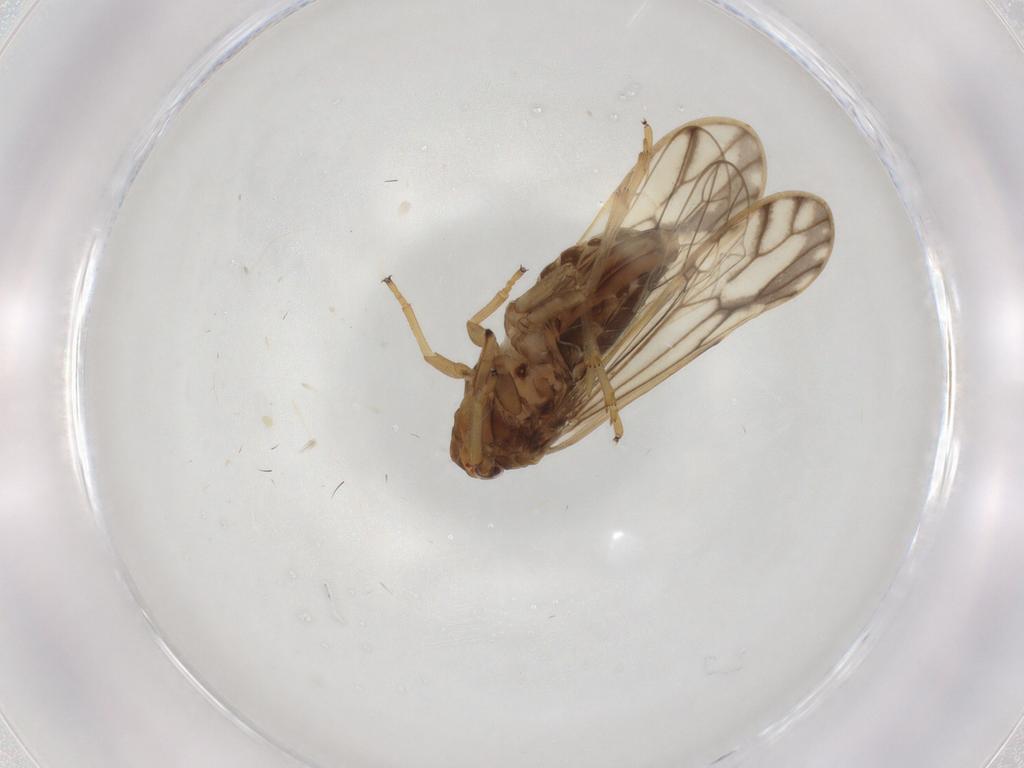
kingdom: Animalia
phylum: Arthropoda
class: Insecta
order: Hemiptera
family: Delphacidae
